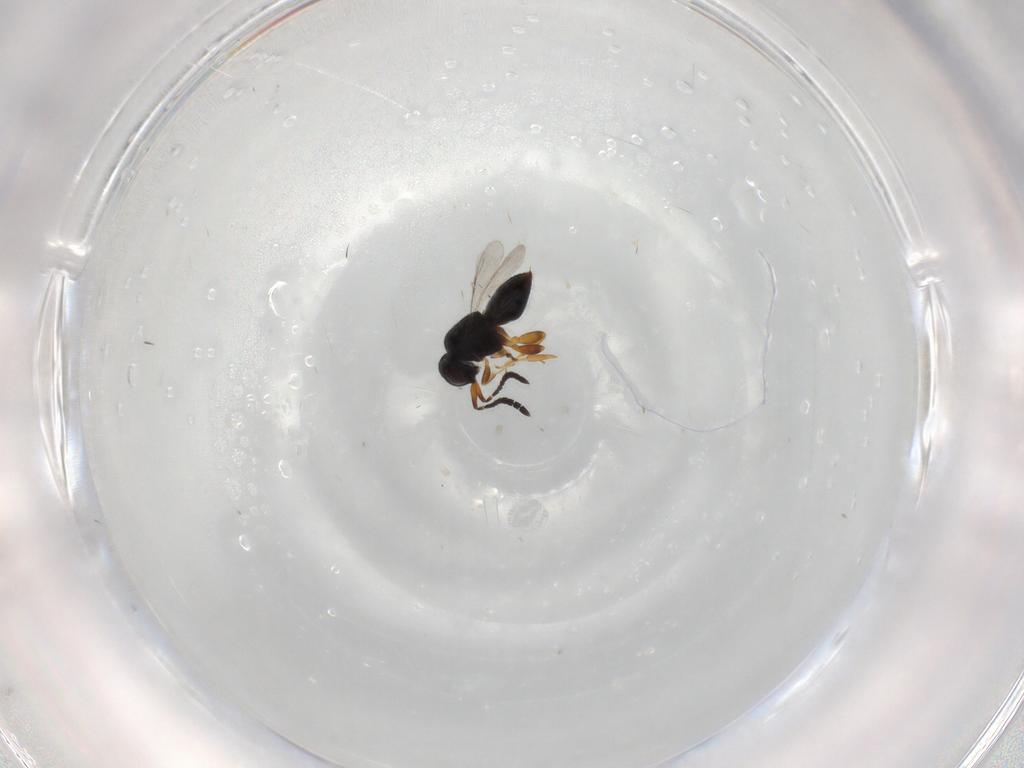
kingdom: Animalia
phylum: Arthropoda
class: Insecta
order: Hymenoptera
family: Ceraphronidae
